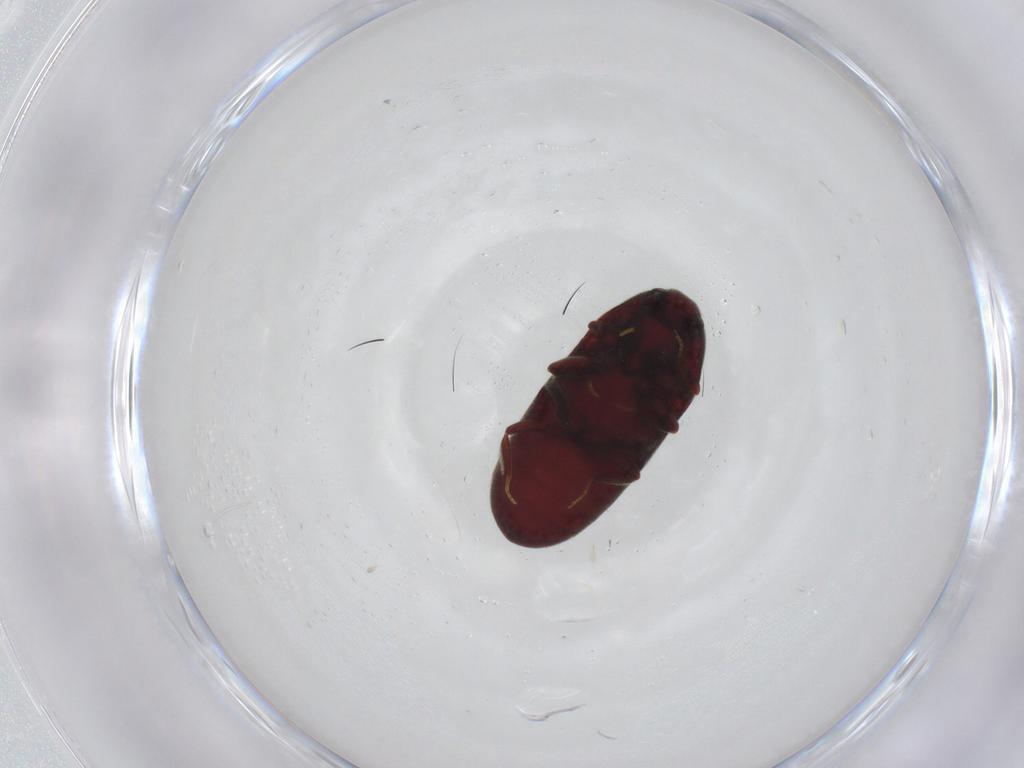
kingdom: Animalia
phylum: Arthropoda
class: Insecta
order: Coleoptera
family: Throscidae
